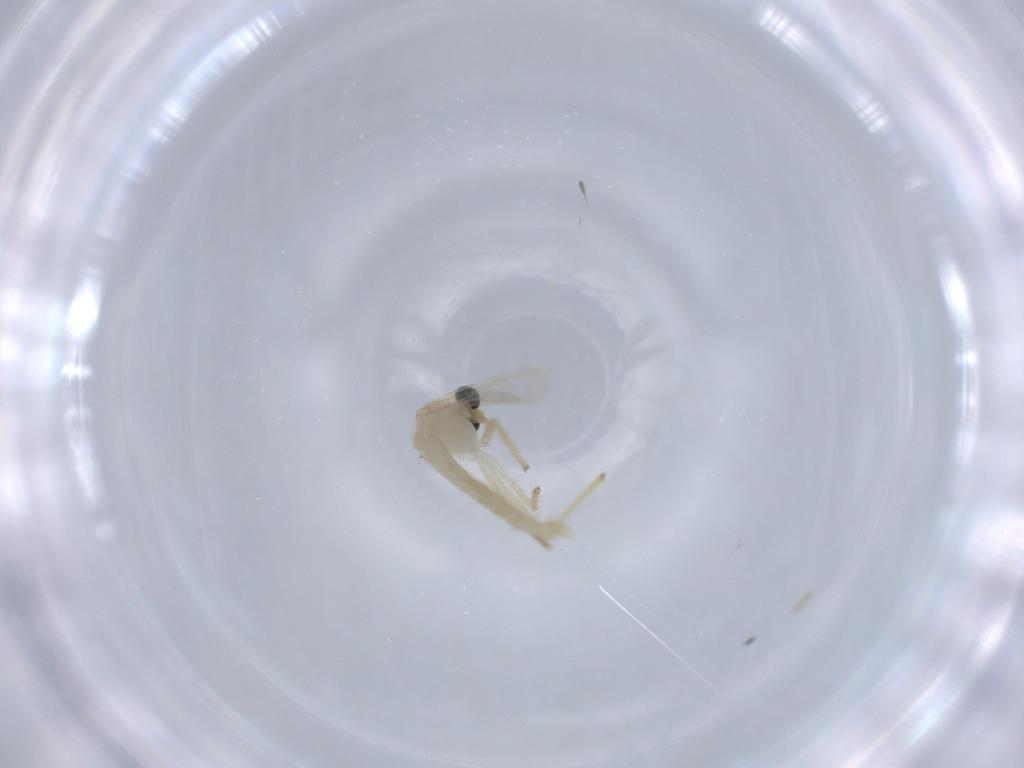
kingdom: Animalia
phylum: Arthropoda
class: Insecta
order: Diptera
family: Chironomidae
